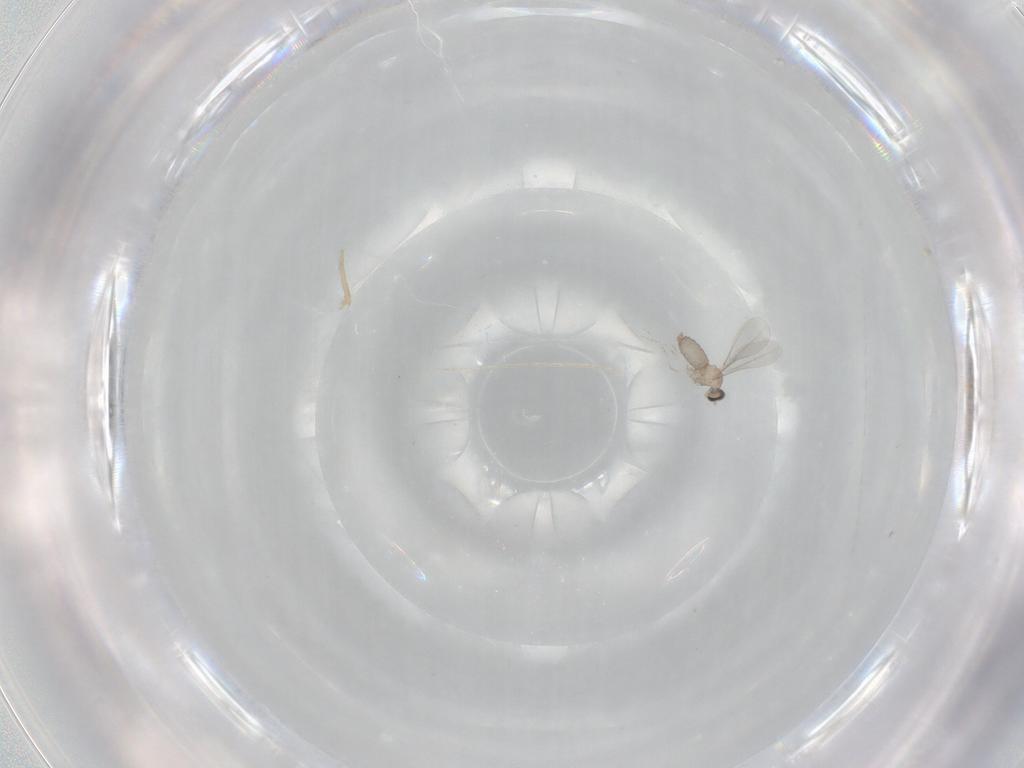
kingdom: Animalia
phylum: Arthropoda
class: Insecta
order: Diptera
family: Cecidomyiidae
